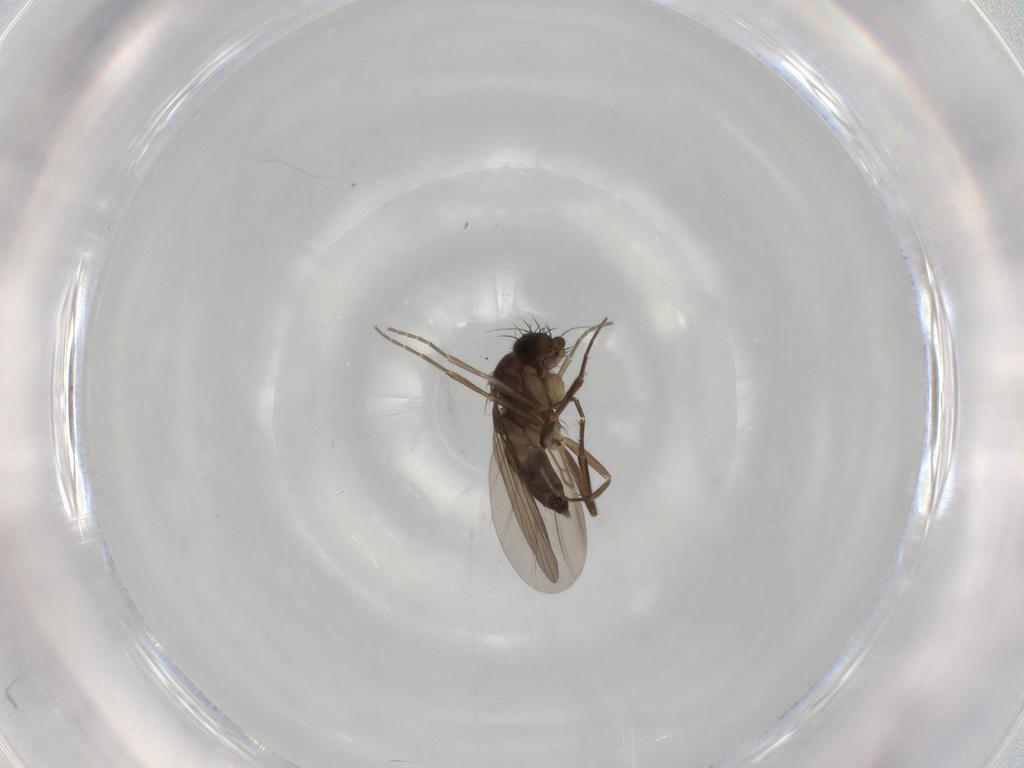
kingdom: Animalia
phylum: Arthropoda
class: Insecta
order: Diptera
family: Phoridae
